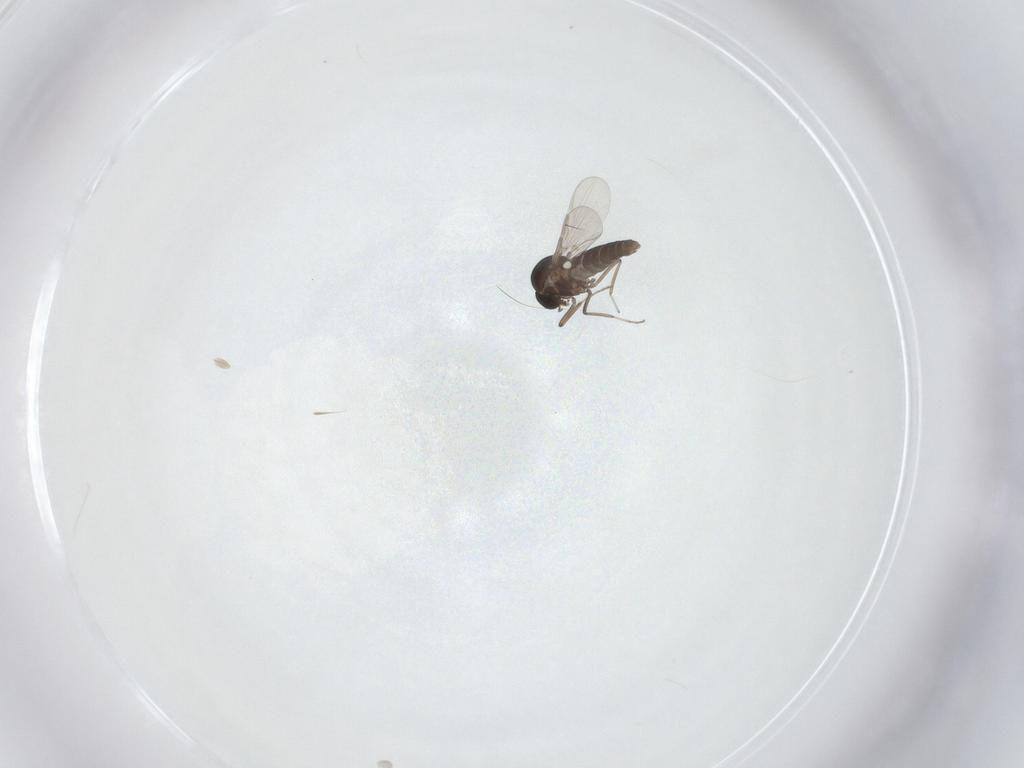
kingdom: Animalia
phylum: Arthropoda
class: Insecta
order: Diptera
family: Ceratopogonidae
